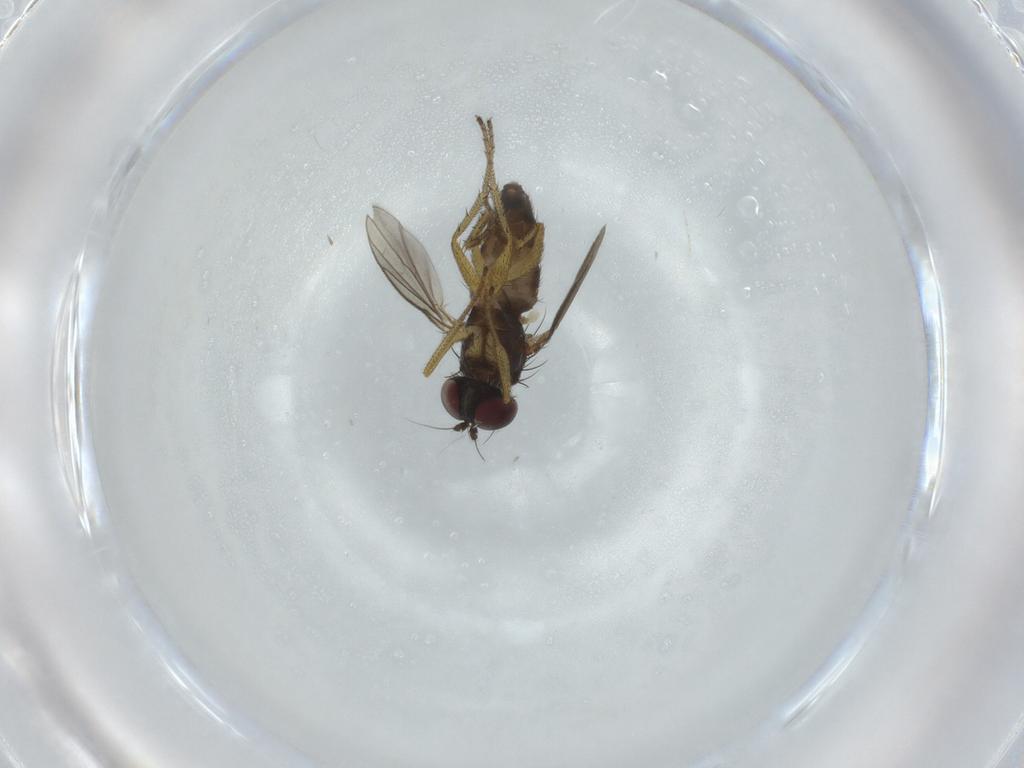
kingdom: Animalia
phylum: Arthropoda
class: Insecta
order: Diptera
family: Dolichopodidae
